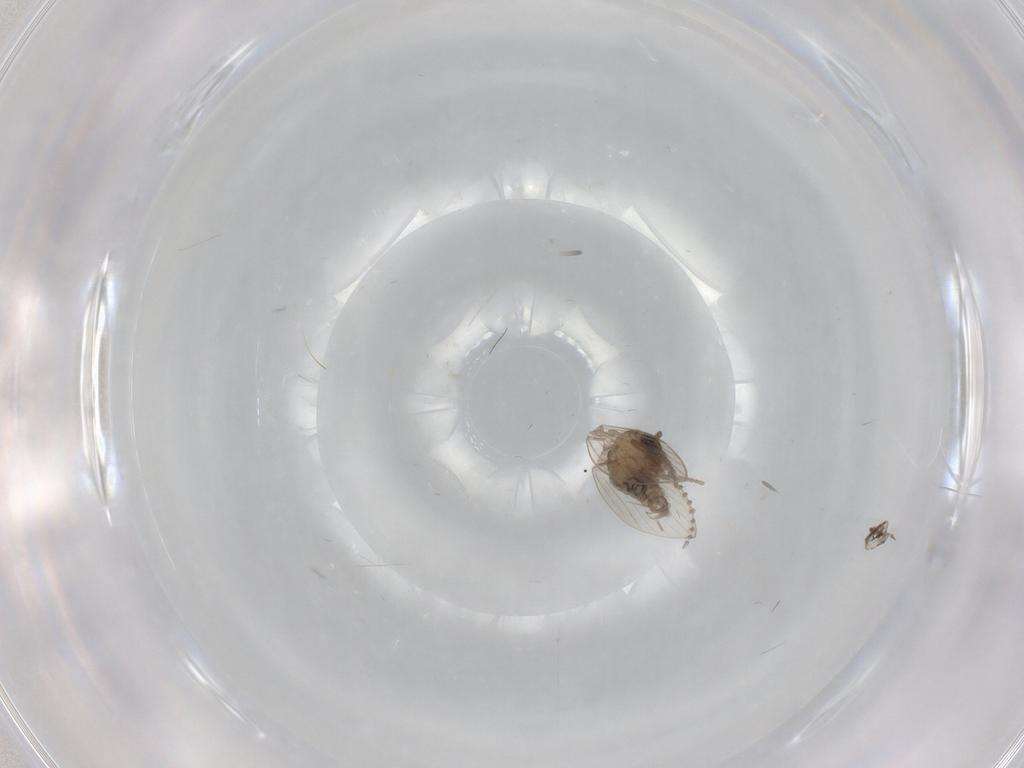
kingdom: Animalia
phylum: Arthropoda
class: Insecta
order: Diptera
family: Psychodidae
